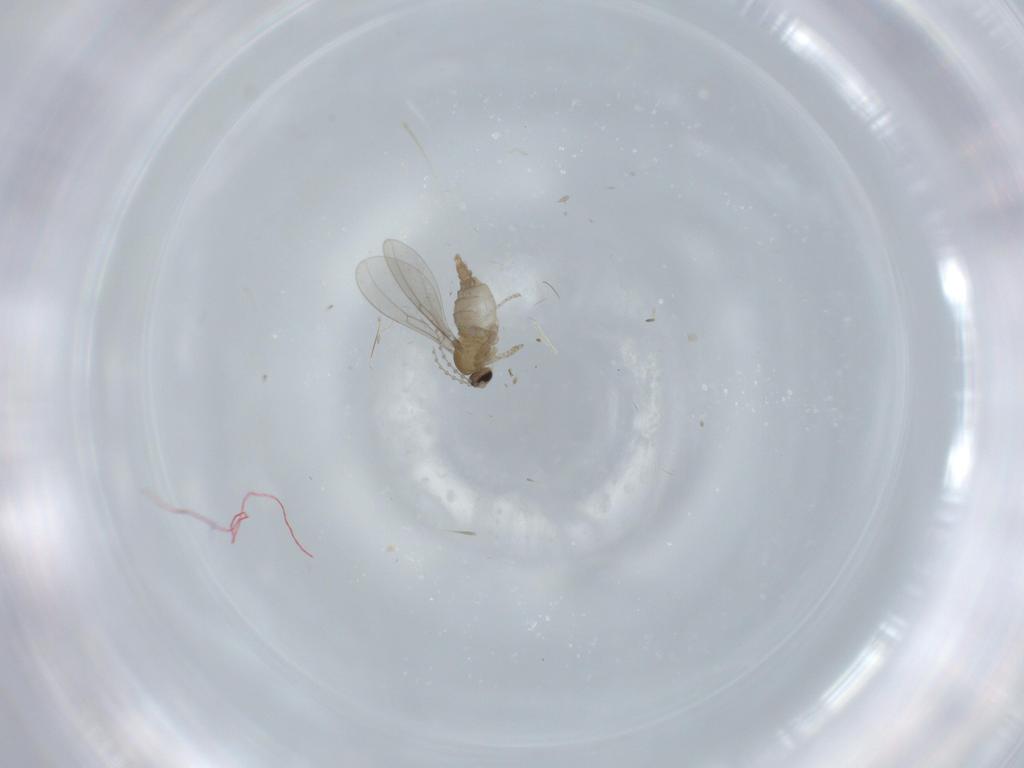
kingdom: Animalia
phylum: Arthropoda
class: Insecta
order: Diptera
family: Cecidomyiidae
